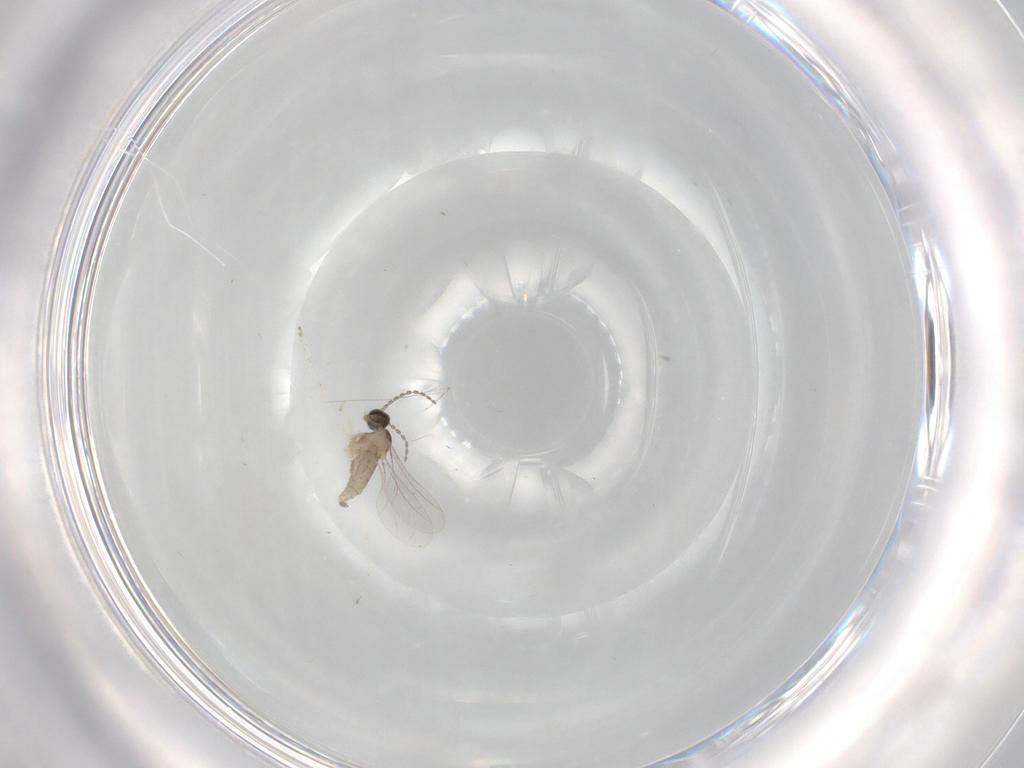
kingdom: Animalia
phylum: Arthropoda
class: Insecta
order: Diptera
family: Cecidomyiidae
